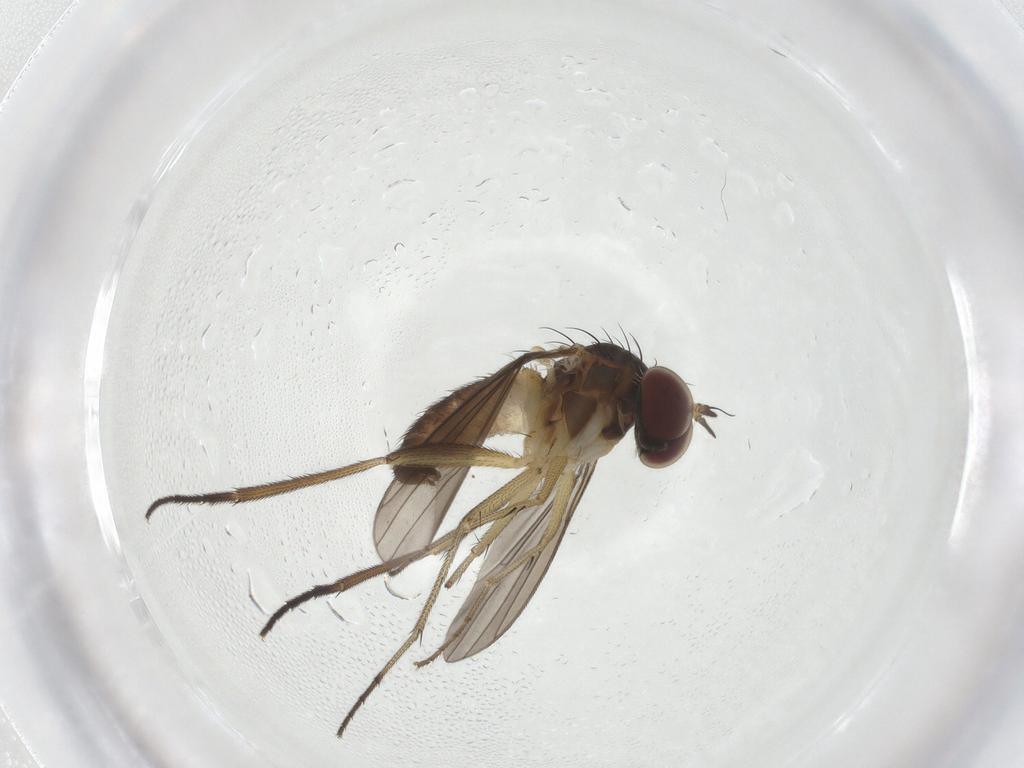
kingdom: Animalia
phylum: Arthropoda
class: Insecta
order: Diptera
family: Dolichopodidae
